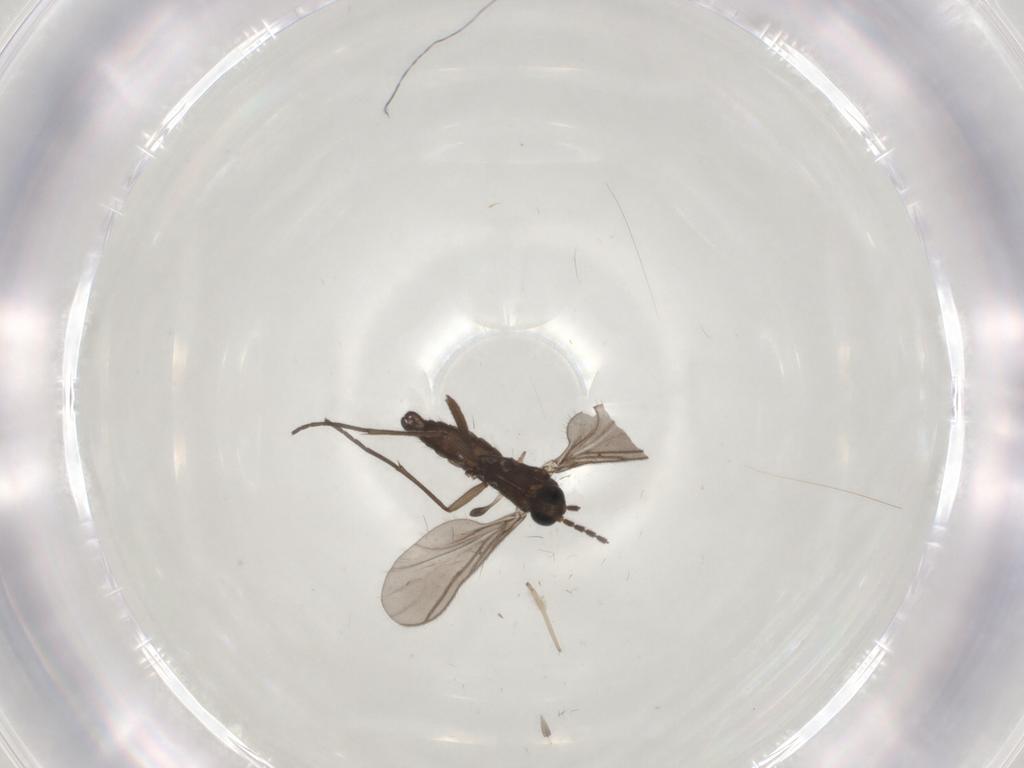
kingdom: Animalia
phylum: Arthropoda
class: Insecta
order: Diptera
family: Sciaridae
